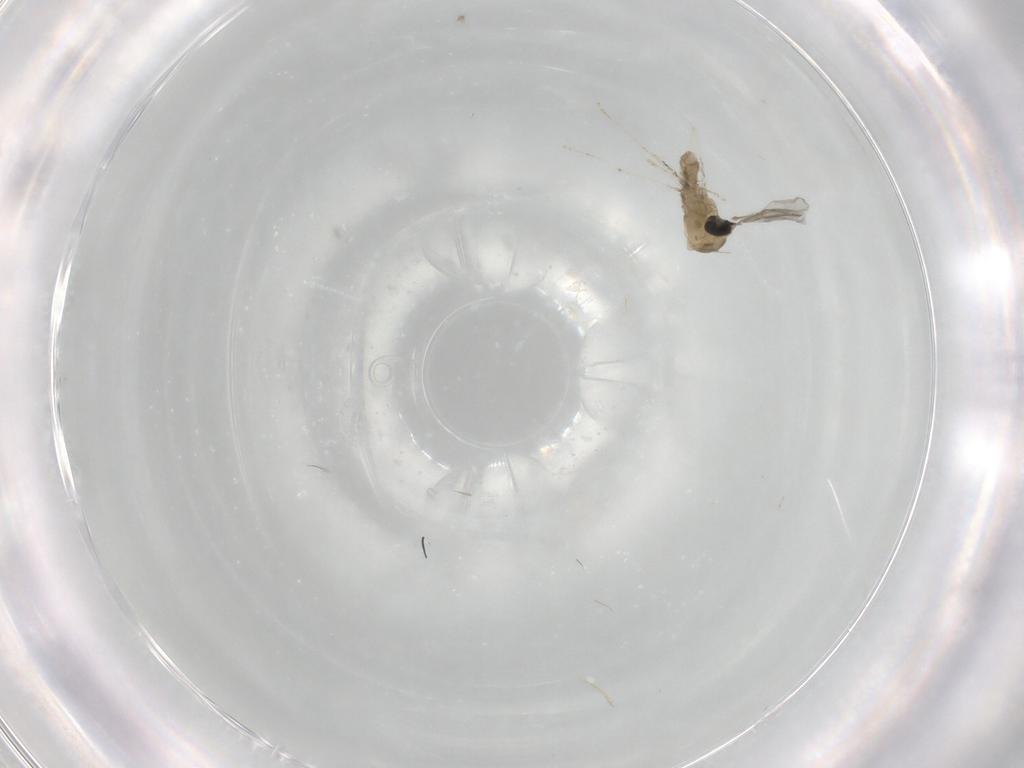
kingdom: Animalia
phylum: Arthropoda
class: Insecta
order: Diptera
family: Cecidomyiidae
